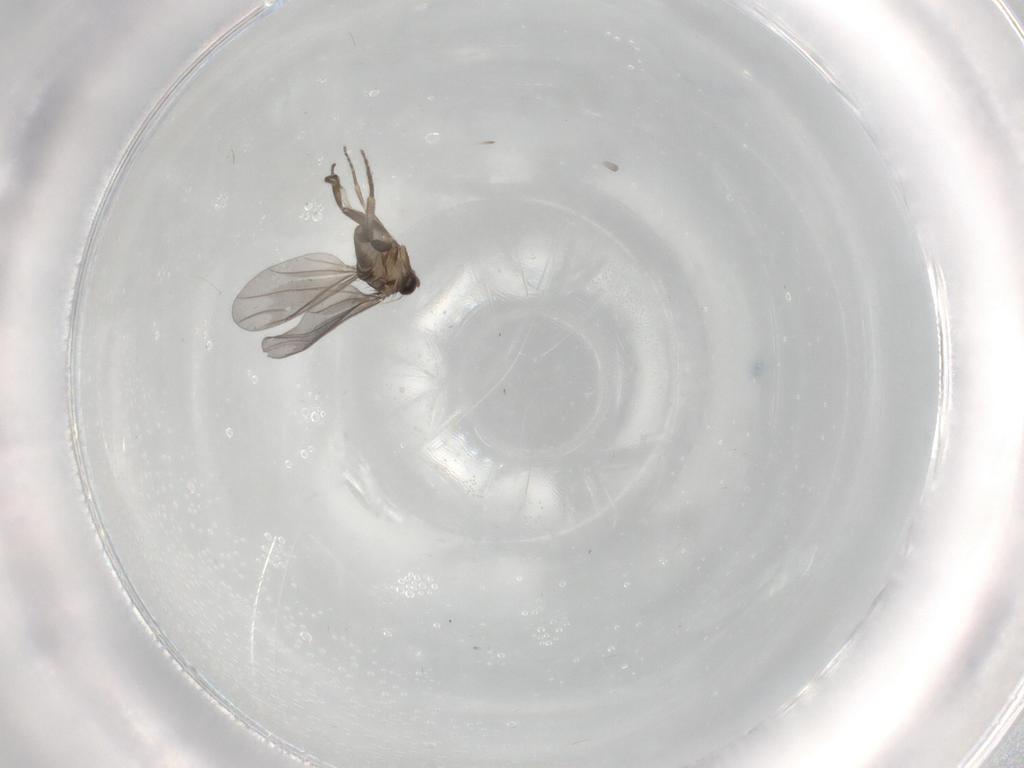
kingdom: Animalia
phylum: Arthropoda
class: Insecta
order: Diptera
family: Phoridae
